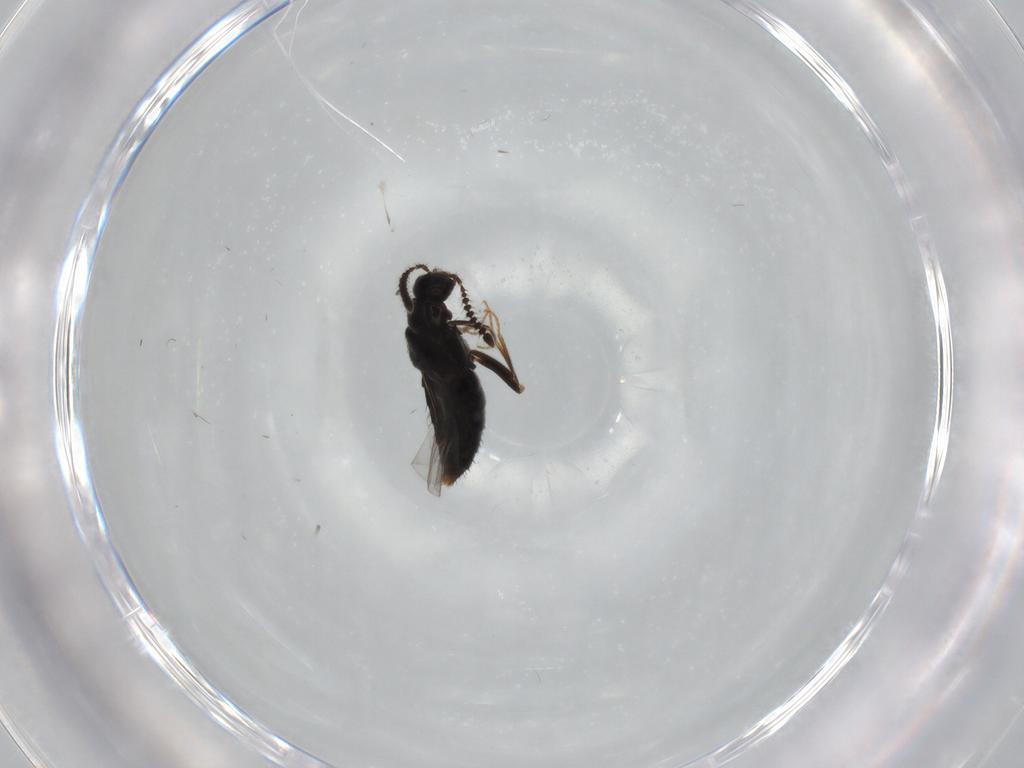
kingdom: Animalia
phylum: Arthropoda
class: Insecta
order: Coleoptera
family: Staphylinidae
